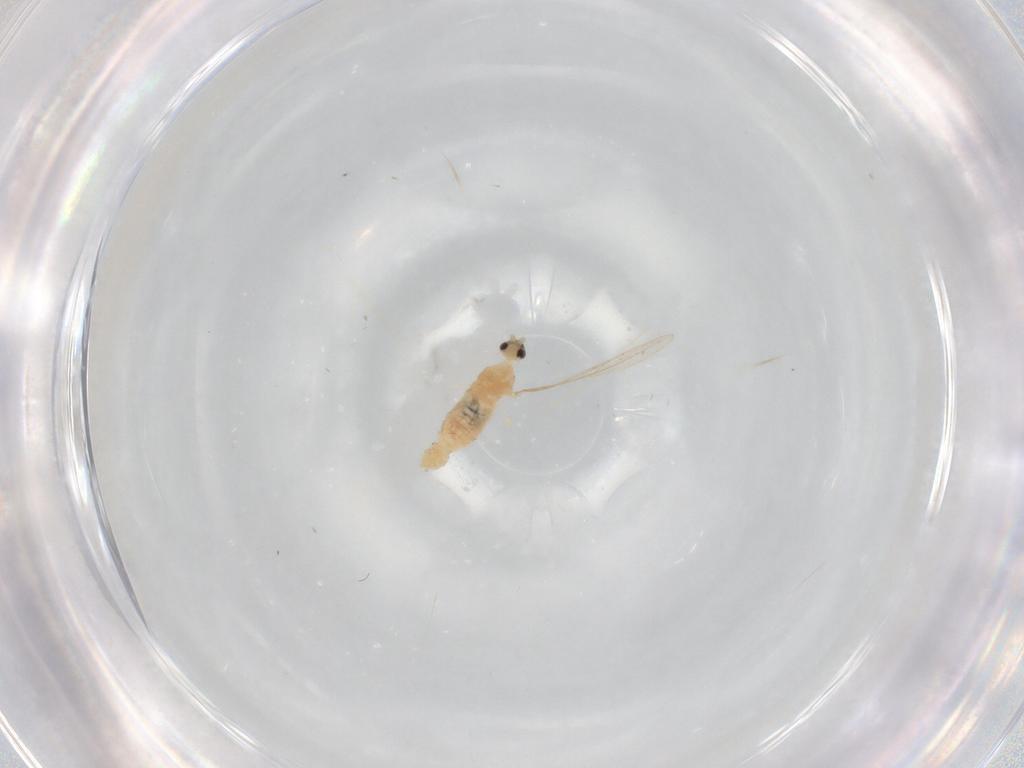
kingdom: Animalia
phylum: Arthropoda
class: Insecta
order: Diptera
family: Cecidomyiidae
